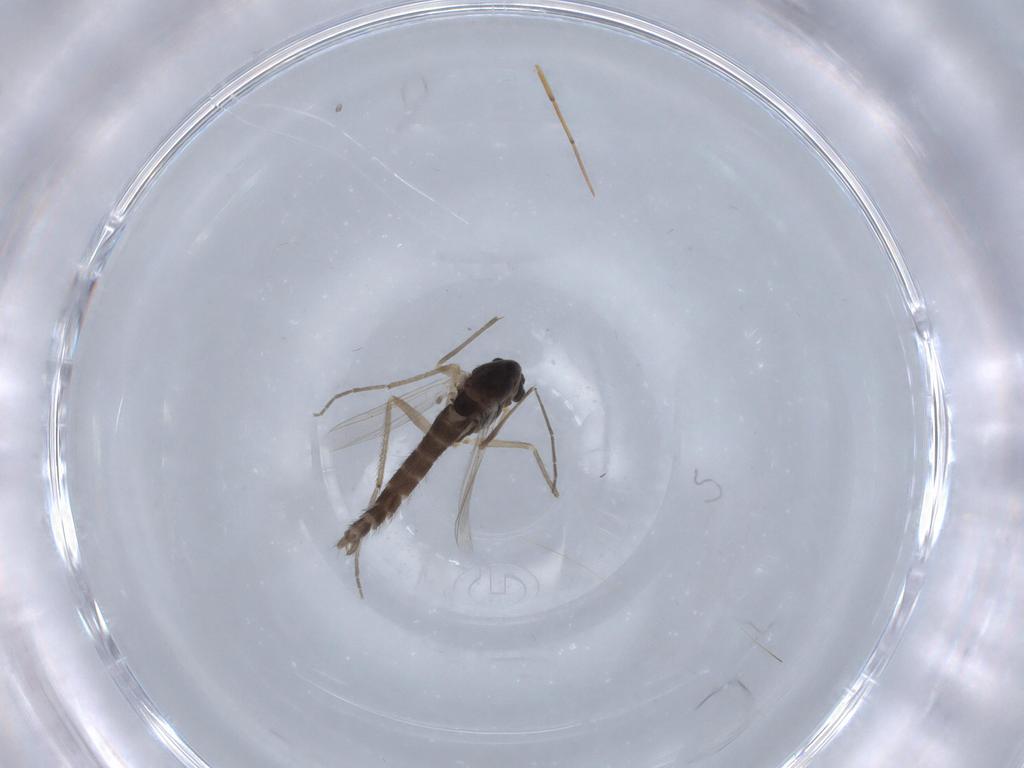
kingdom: Animalia
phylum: Arthropoda
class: Insecta
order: Diptera
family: Chironomidae
